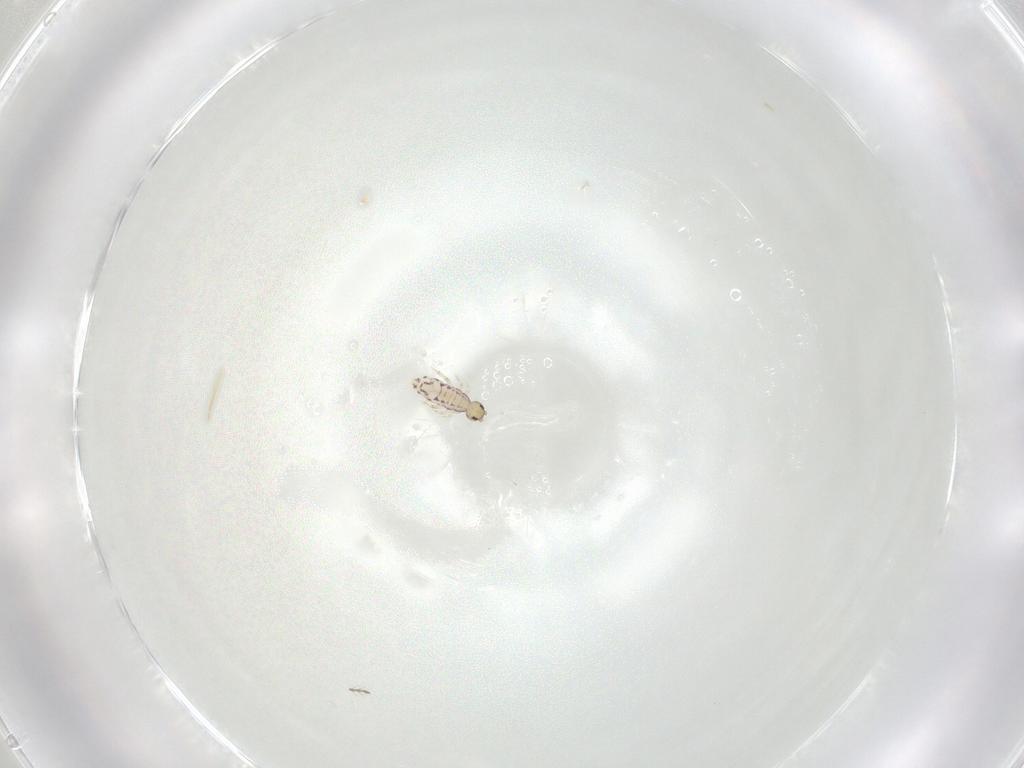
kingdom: Animalia
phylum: Arthropoda
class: Collembola
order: Entomobryomorpha
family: Entomobryidae
